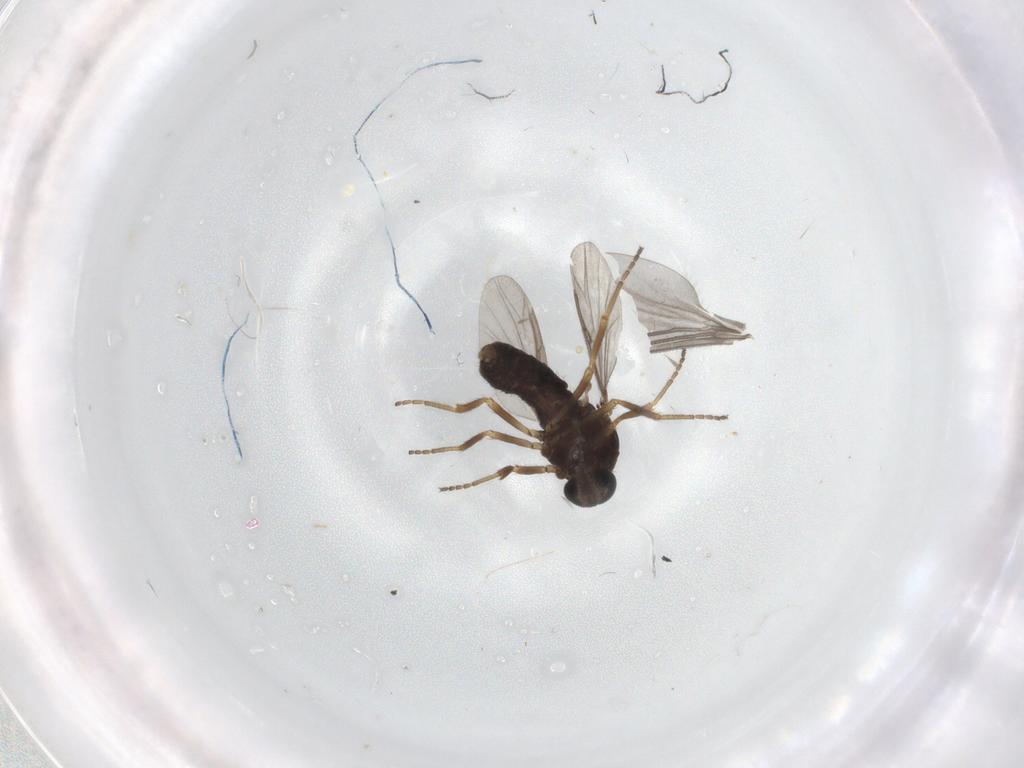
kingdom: Animalia
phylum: Arthropoda
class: Insecta
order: Diptera
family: Ceratopogonidae
